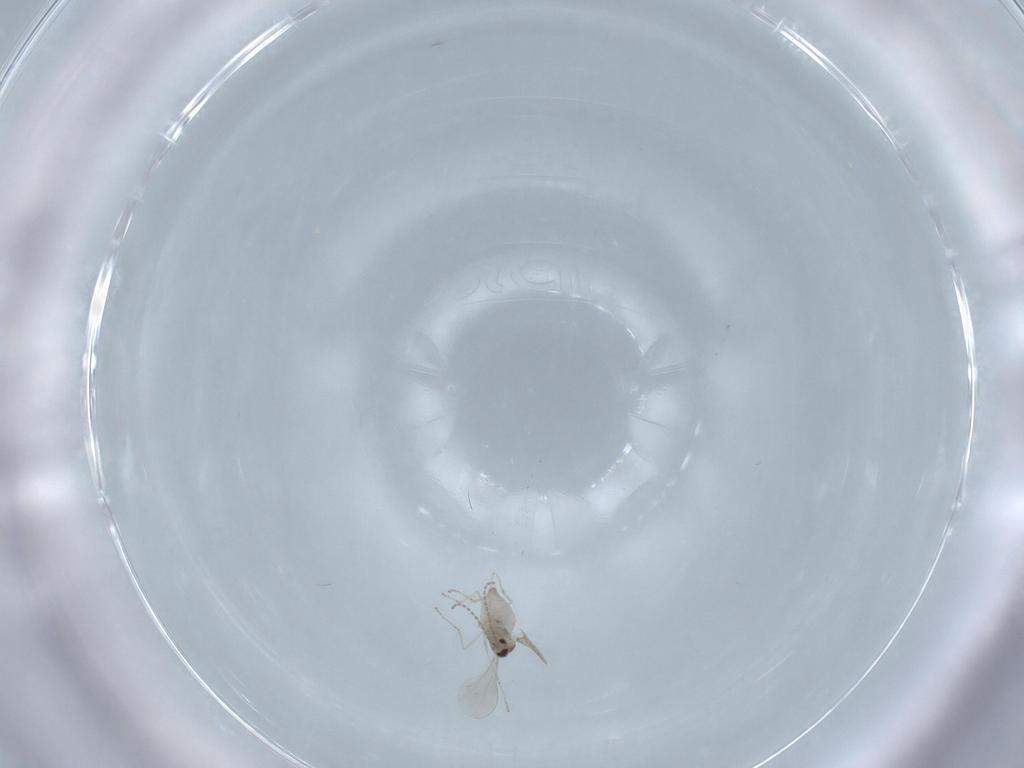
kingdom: Animalia
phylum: Arthropoda
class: Insecta
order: Diptera
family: Cecidomyiidae
